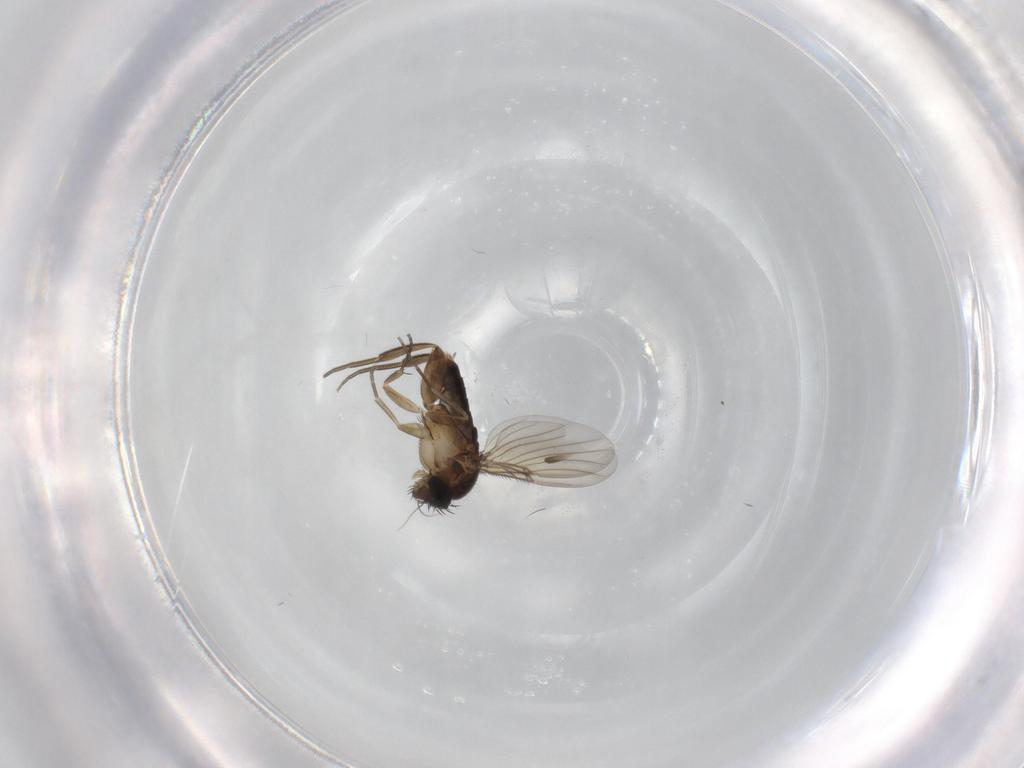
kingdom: Animalia
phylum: Arthropoda
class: Insecta
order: Diptera
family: Phoridae
